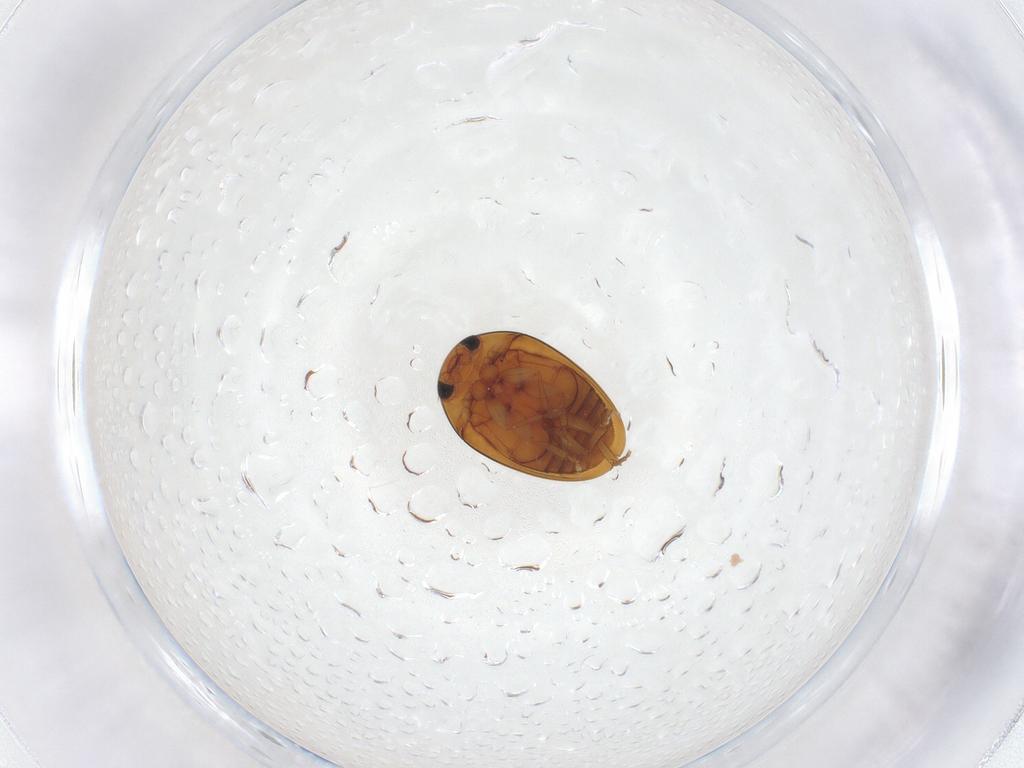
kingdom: Animalia
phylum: Arthropoda
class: Insecta
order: Coleoptera
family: Phalacridae
